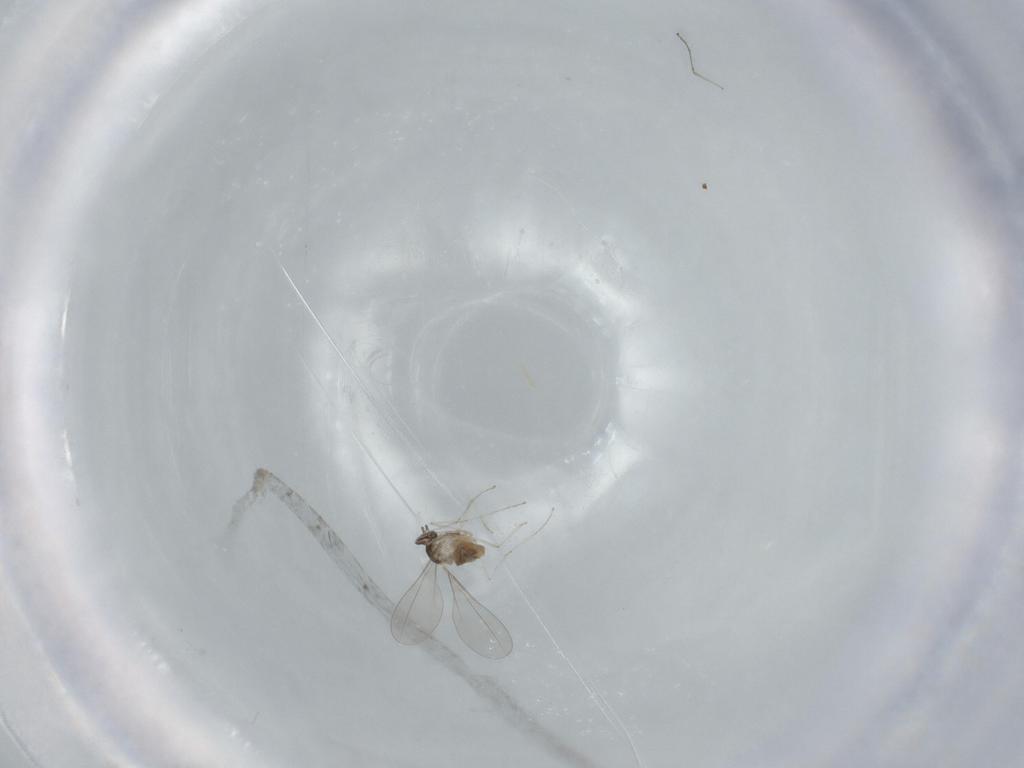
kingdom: Animalia
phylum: Arthropoda
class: Insecta
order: Diptera
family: Cecidomyiidae
